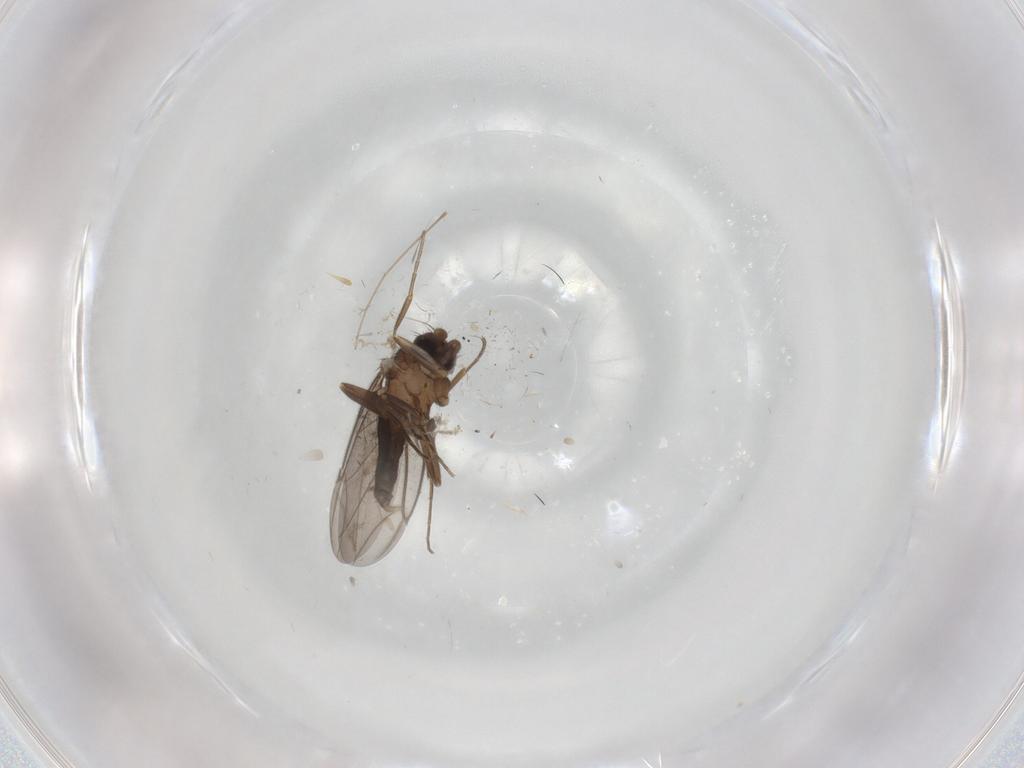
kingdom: Animalia
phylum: Arthropoda
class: Insecta
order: Diptera
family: Cecidomyiidae
